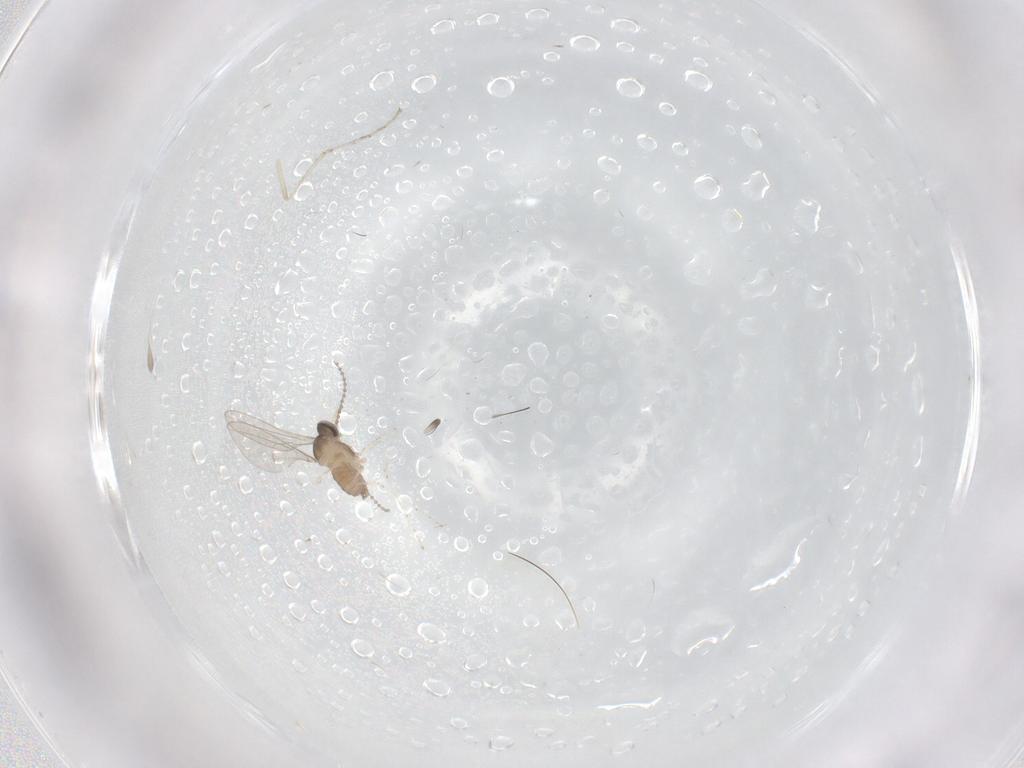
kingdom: Animalia
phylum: Arthropoda
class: Insecta
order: Diptera
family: Cecidomyiidae
